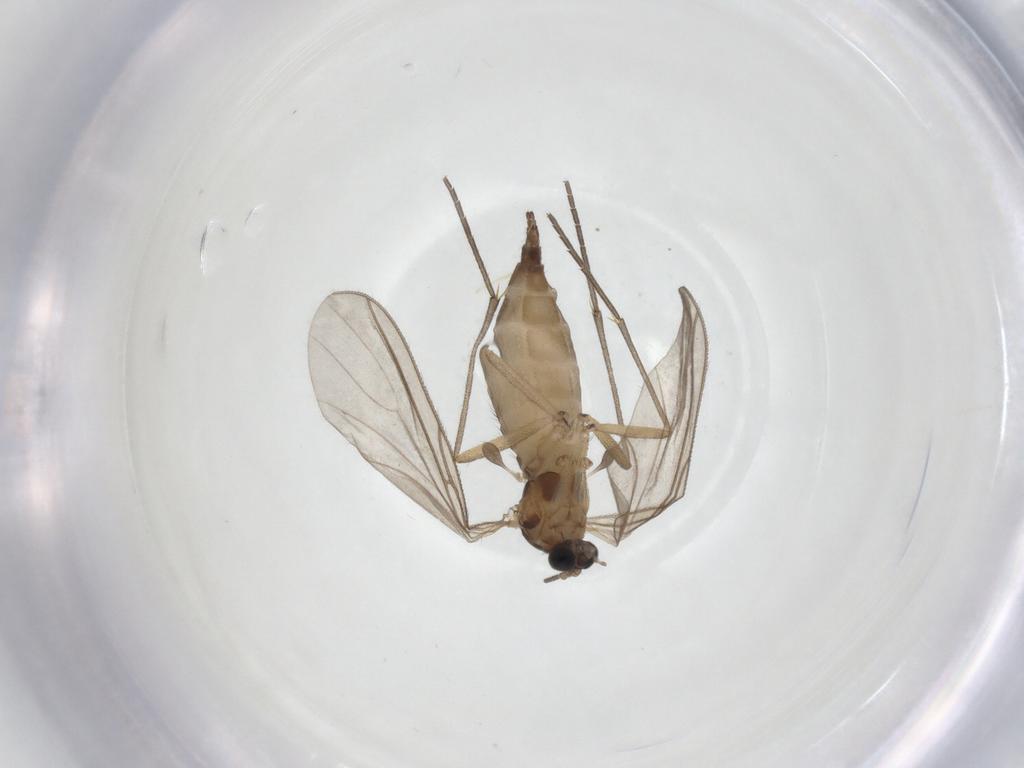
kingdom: Animalia
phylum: Arthropoda
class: Insecta
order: Diptera
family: Sciaridae
